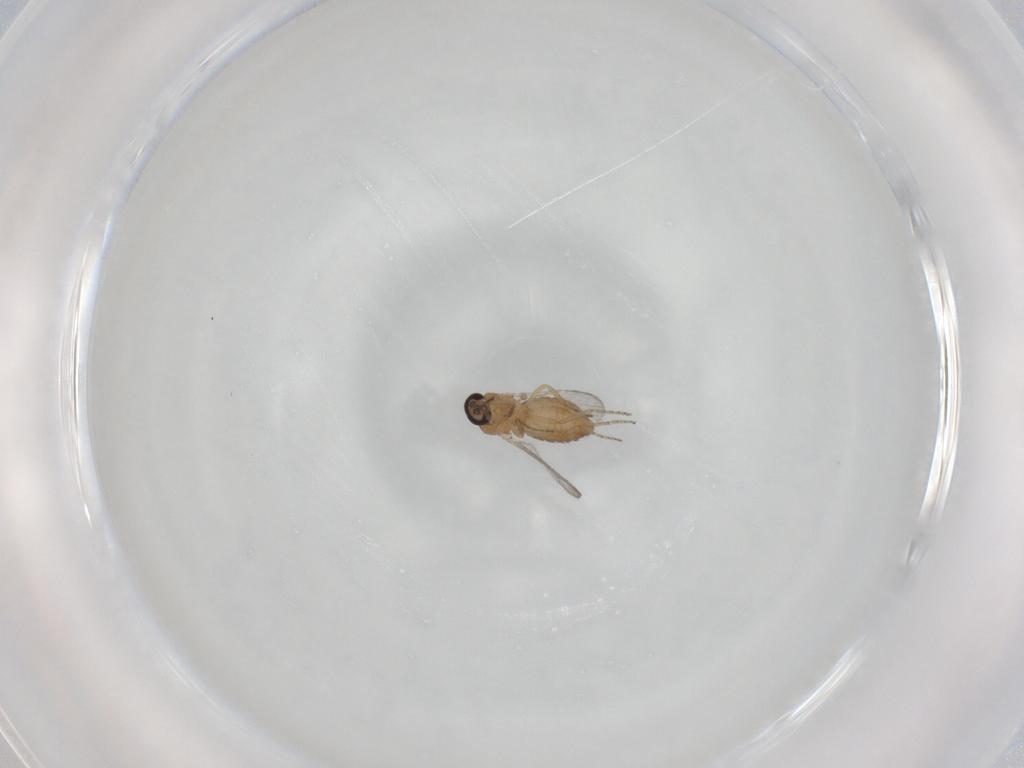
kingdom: Animalia
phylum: Arthropoda
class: Insecta
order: Diptera
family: Ceratopogonidae
